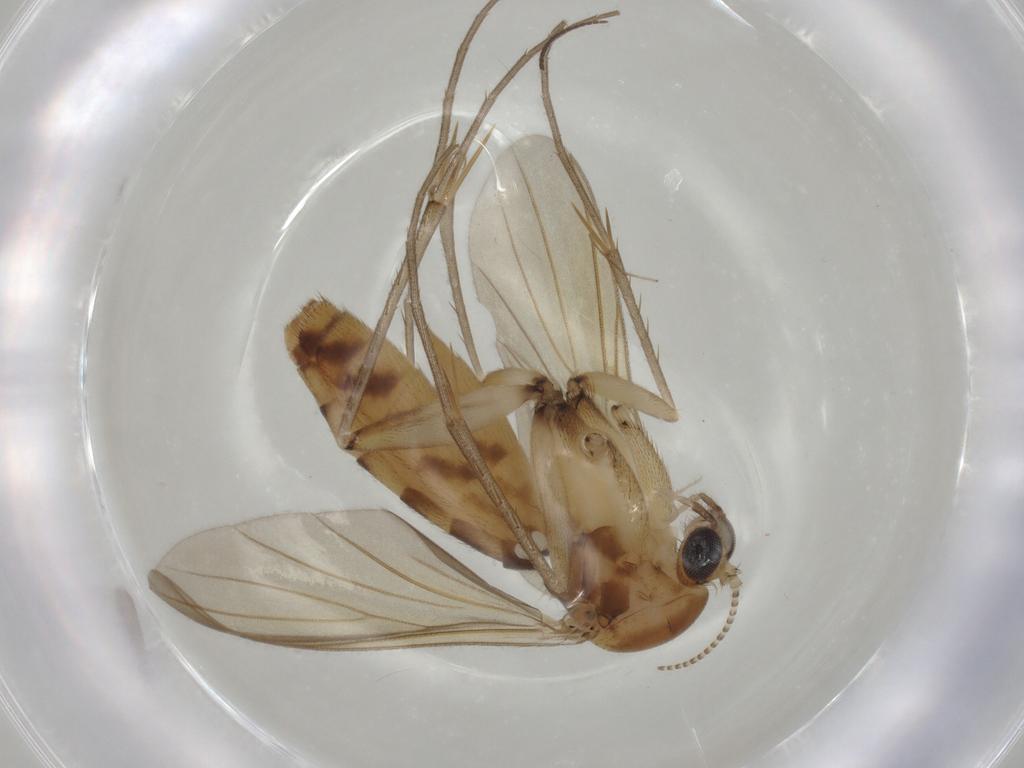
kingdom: Animalia
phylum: Arthropoda
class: Insecta
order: Diptera
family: Mycetophilidae
